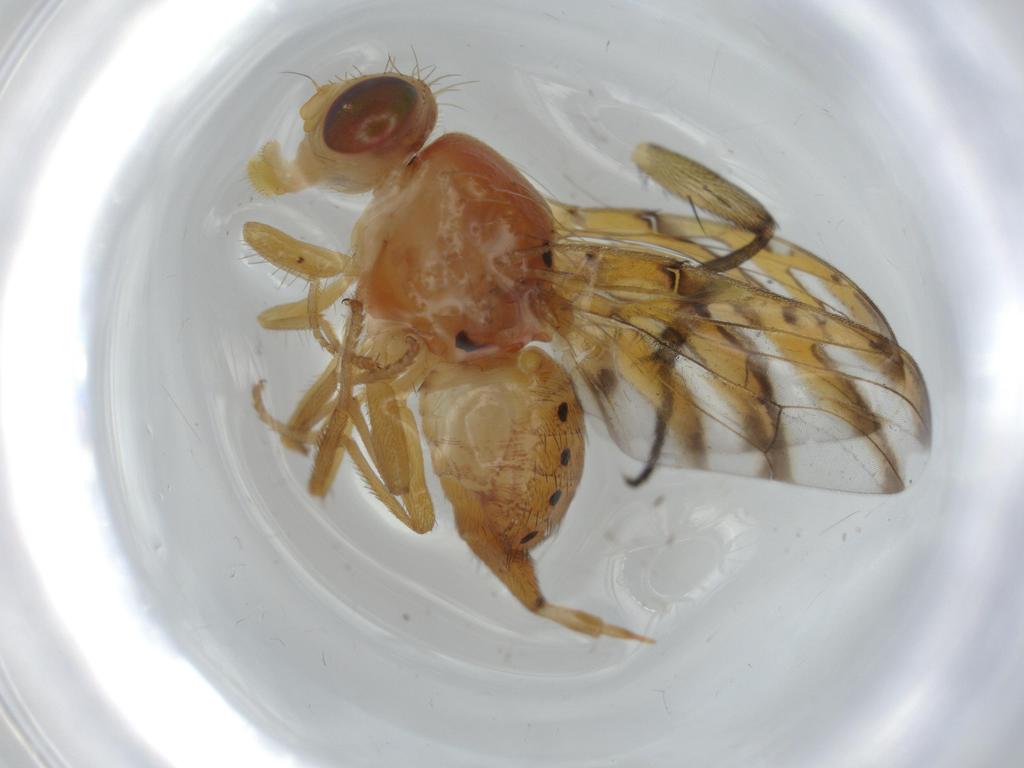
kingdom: Animalia
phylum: Arthropoda
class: Insecta
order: Diptera
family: Tephritidae
